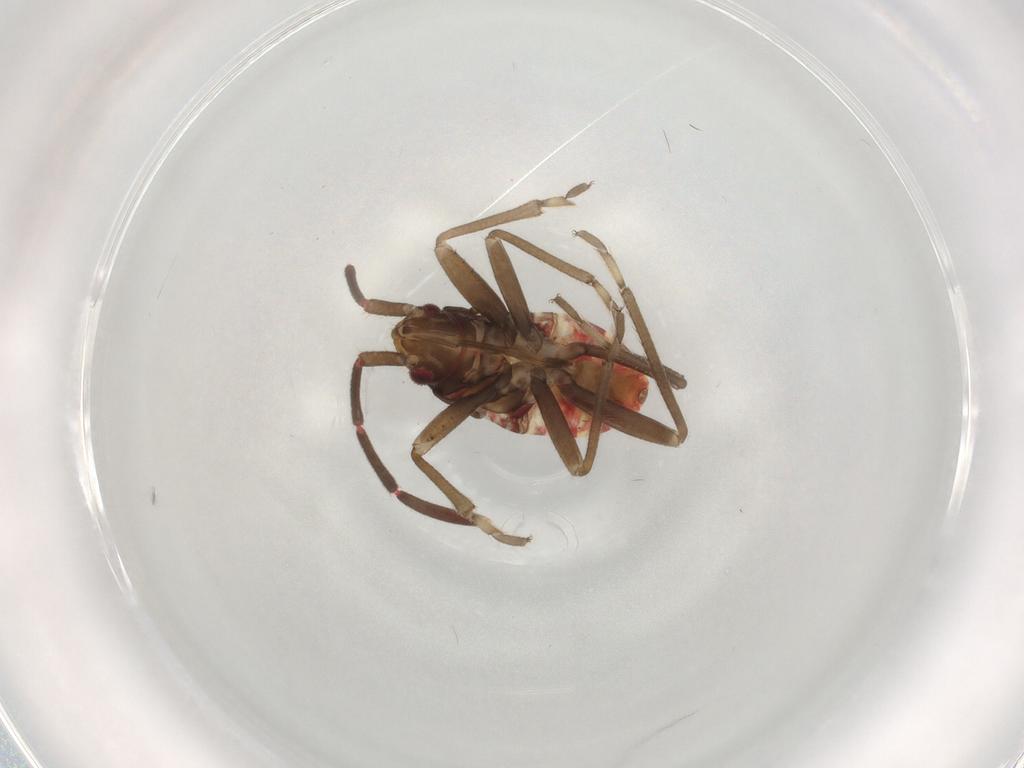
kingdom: Animalia
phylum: Arthropoda
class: Insecta
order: Hemiptera
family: Rhyparochromidae
